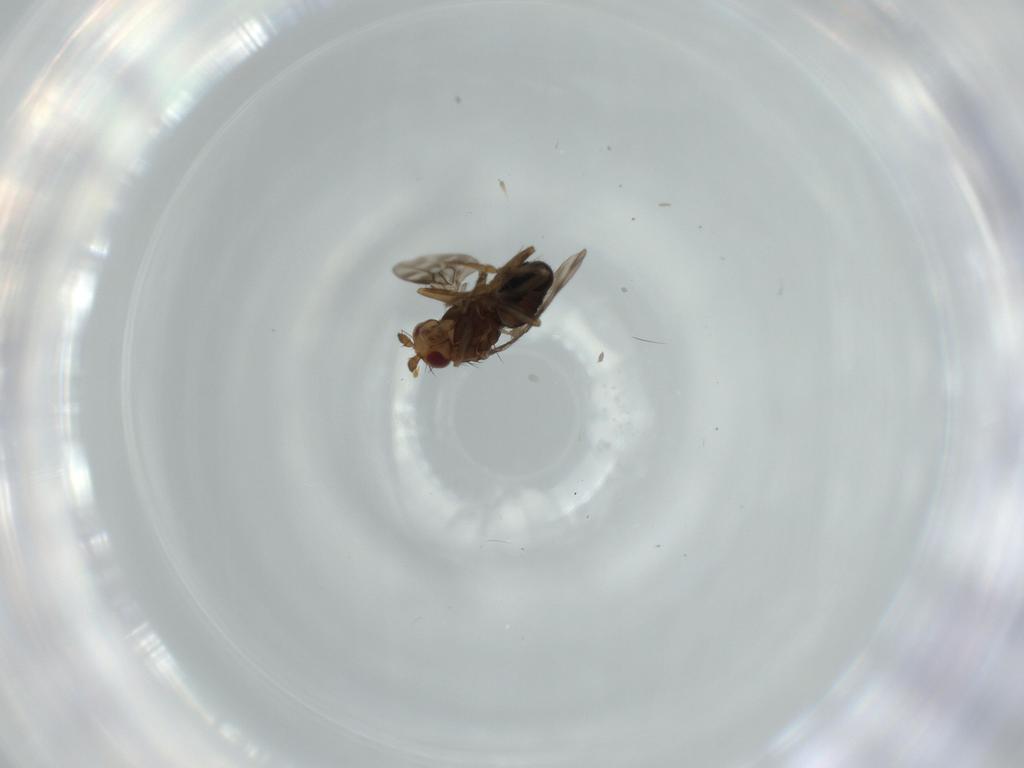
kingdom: Animalia
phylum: Arthropoda
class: Insecta
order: Diptera
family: Sphaeroceridae
